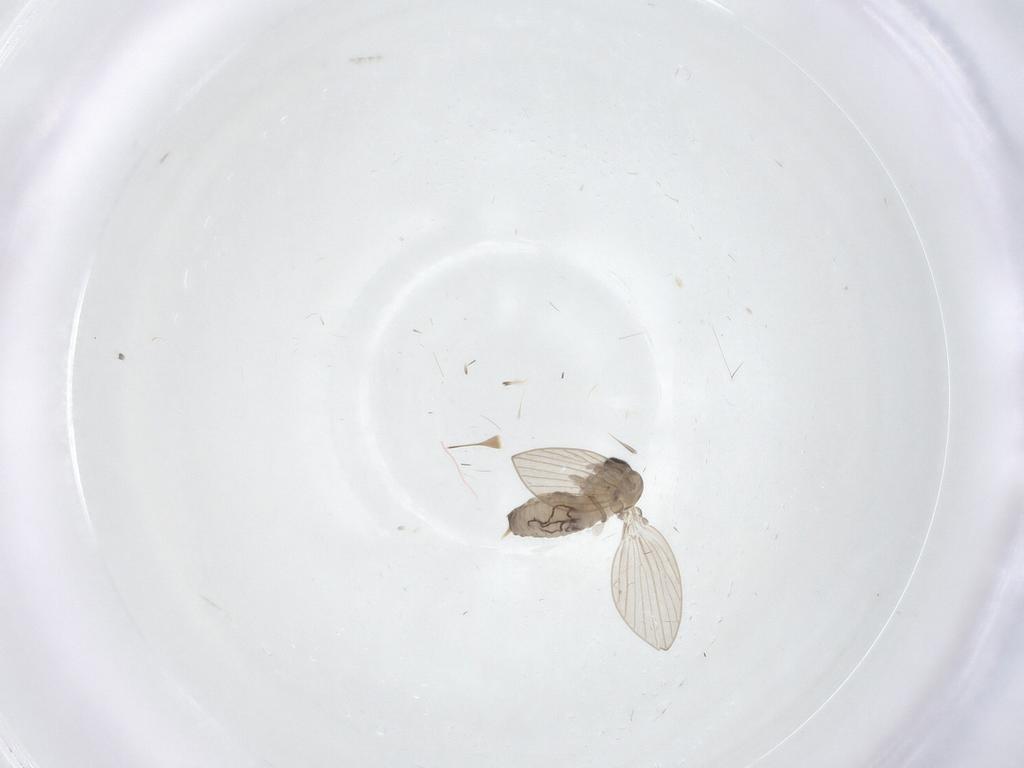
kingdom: Animalia
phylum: Arthropoda
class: Insecta
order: Diptera
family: Psychodidae
